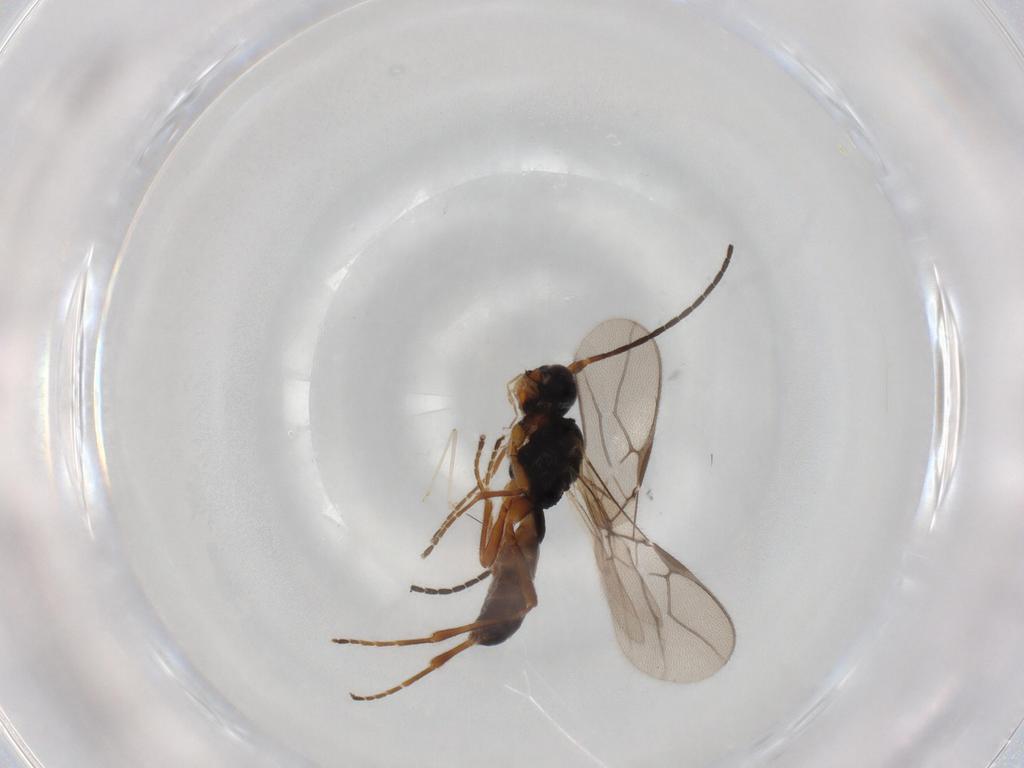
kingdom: Animalia
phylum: Arthropoda
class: Insecta
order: Hymenoptera
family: Braconidae
